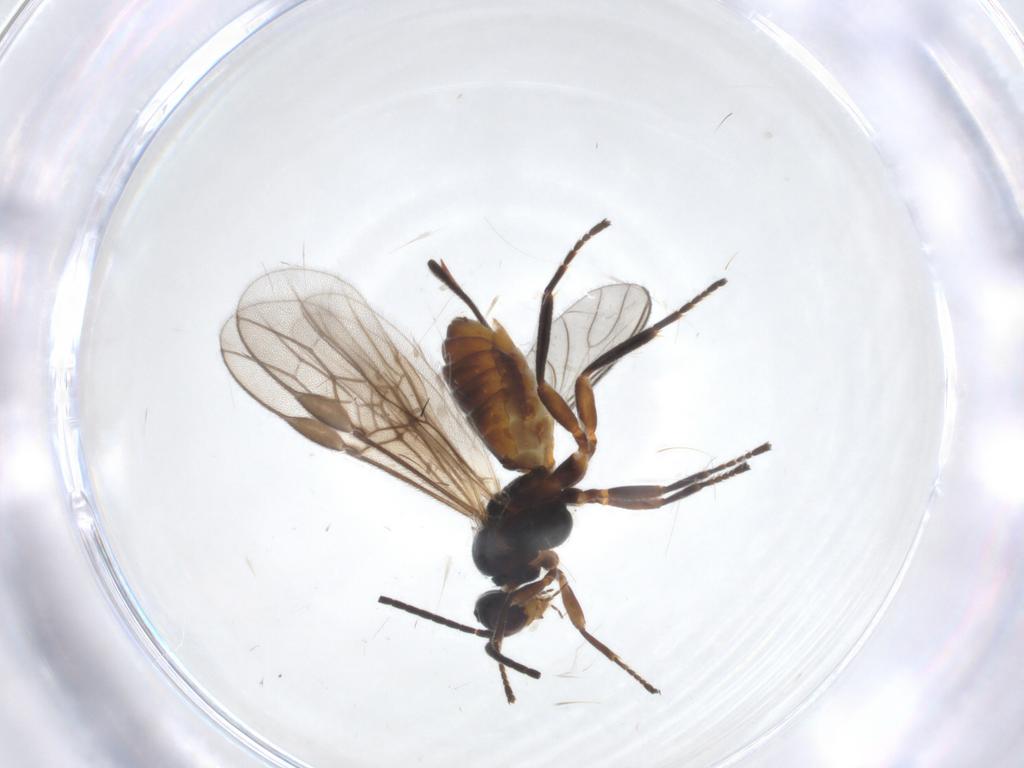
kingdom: Animalia
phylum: Arthropoda
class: Insecta
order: Hymenoptera
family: Braconidae
